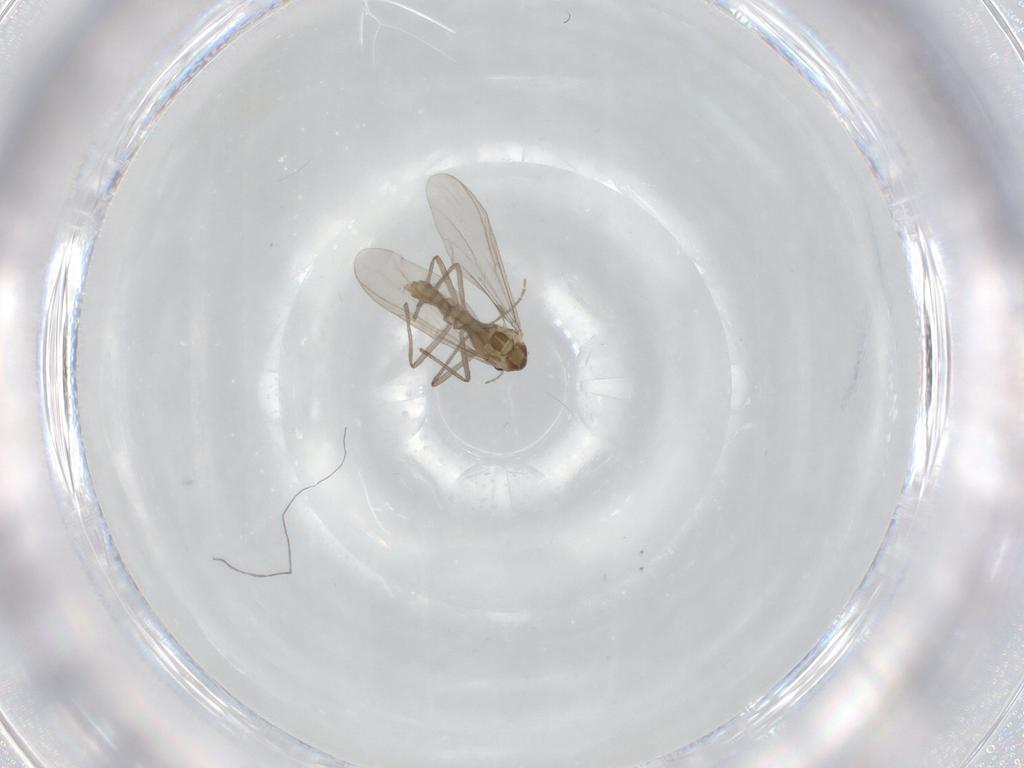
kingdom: Animalia
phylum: Arthropoda
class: Insecta
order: Diptera
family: Chironomidae
